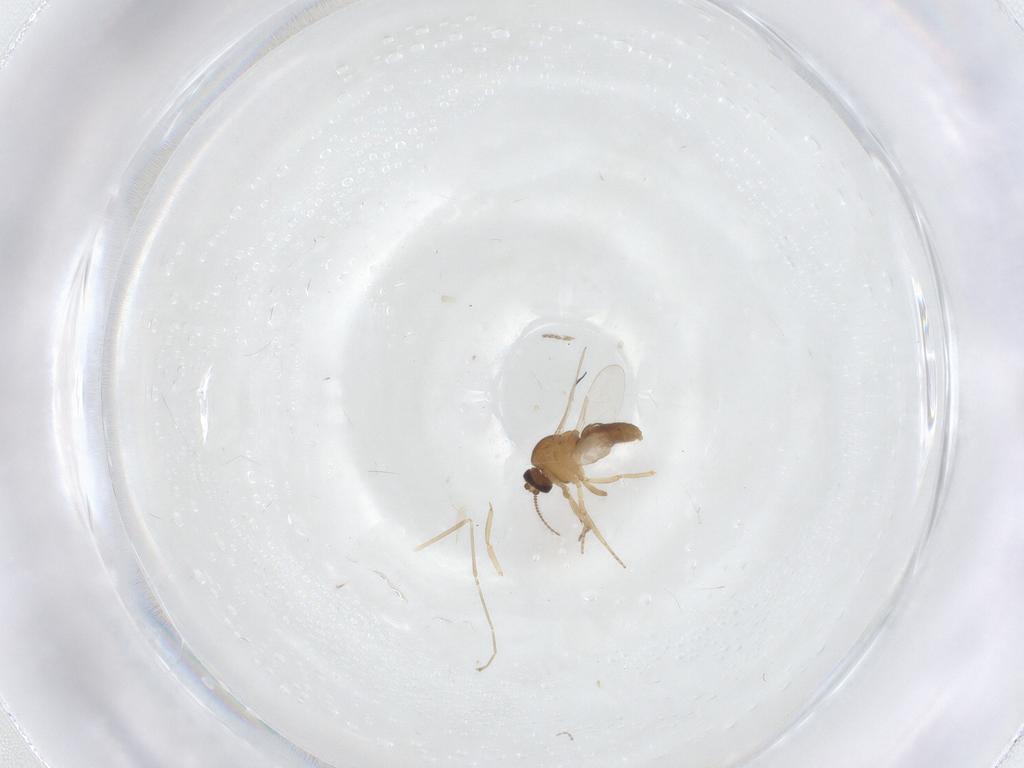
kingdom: Animalia
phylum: Arthropoda
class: Insecta
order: Diptera
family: Ceratopogonidae
